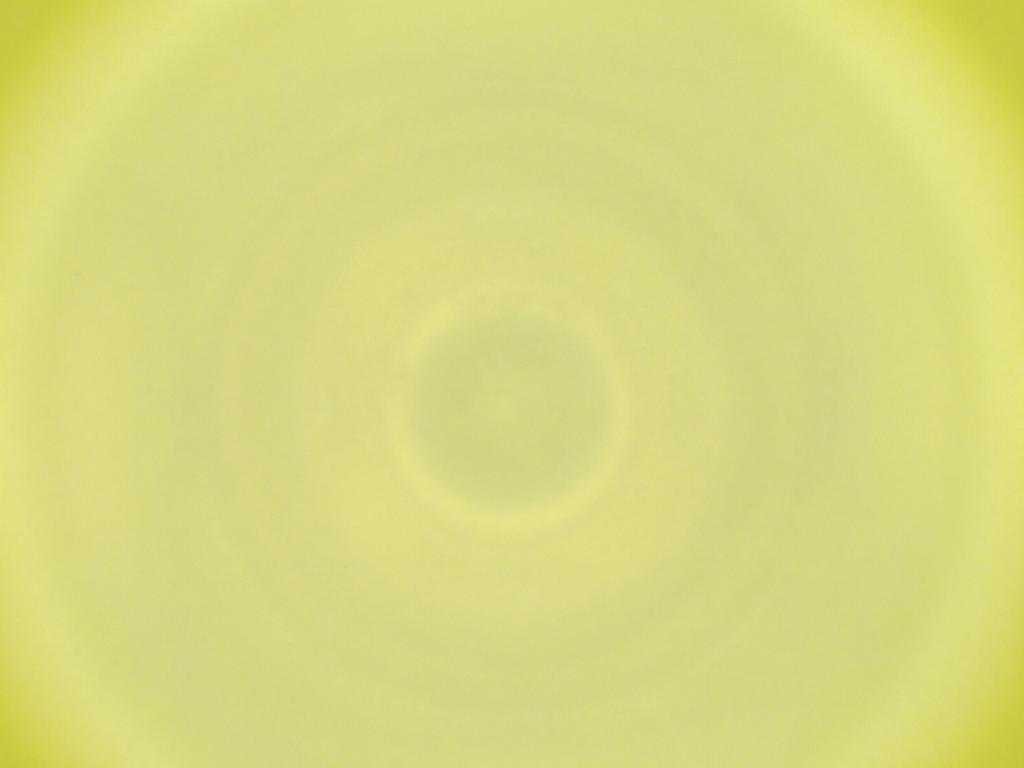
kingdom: Animalia
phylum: Arthropoda
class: Insecta
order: Diptera
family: Cecidomyiidae
